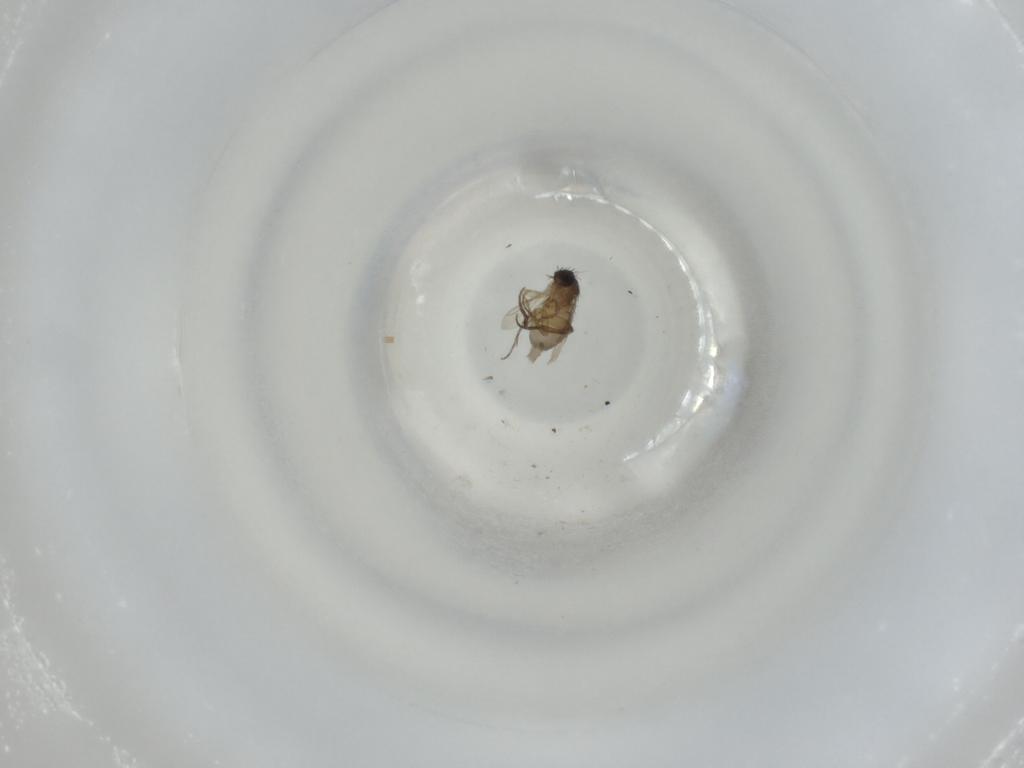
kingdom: Animalia
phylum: Arthropoda
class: Insecta
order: Diptera
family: Phoridae
